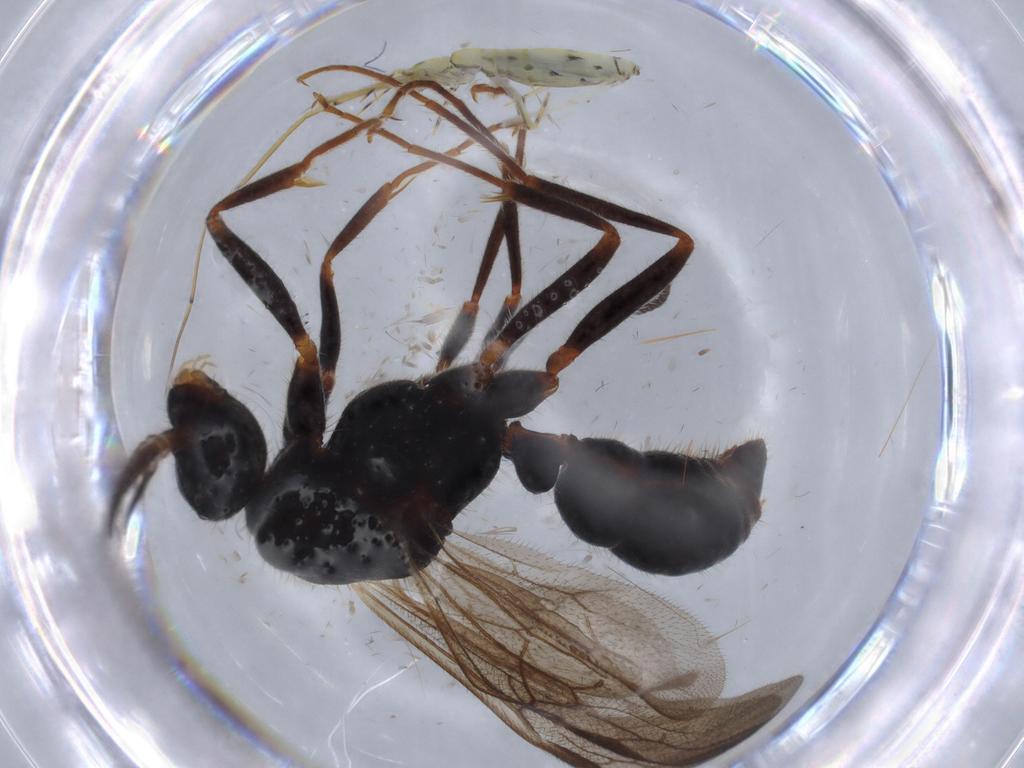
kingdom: Animalia
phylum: Arthropoda
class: Insecta
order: Hymenoptera
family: Formicidae
